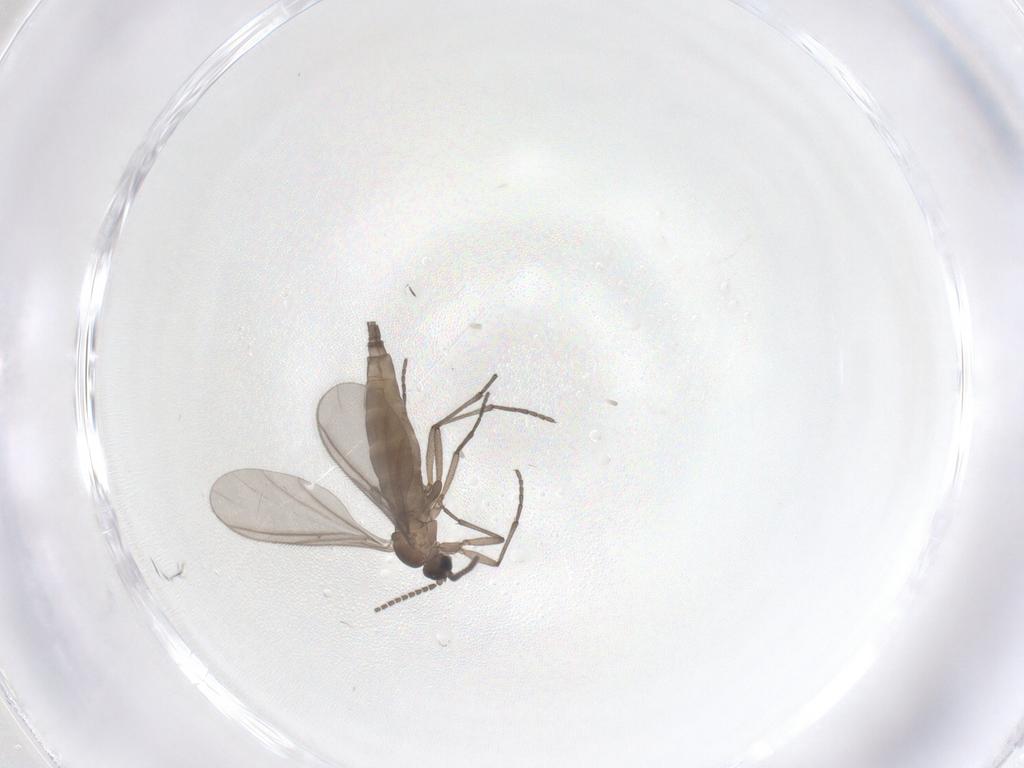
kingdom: Animalia
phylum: Arthropoda
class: Insecta
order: Diptera
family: Sciaridae
